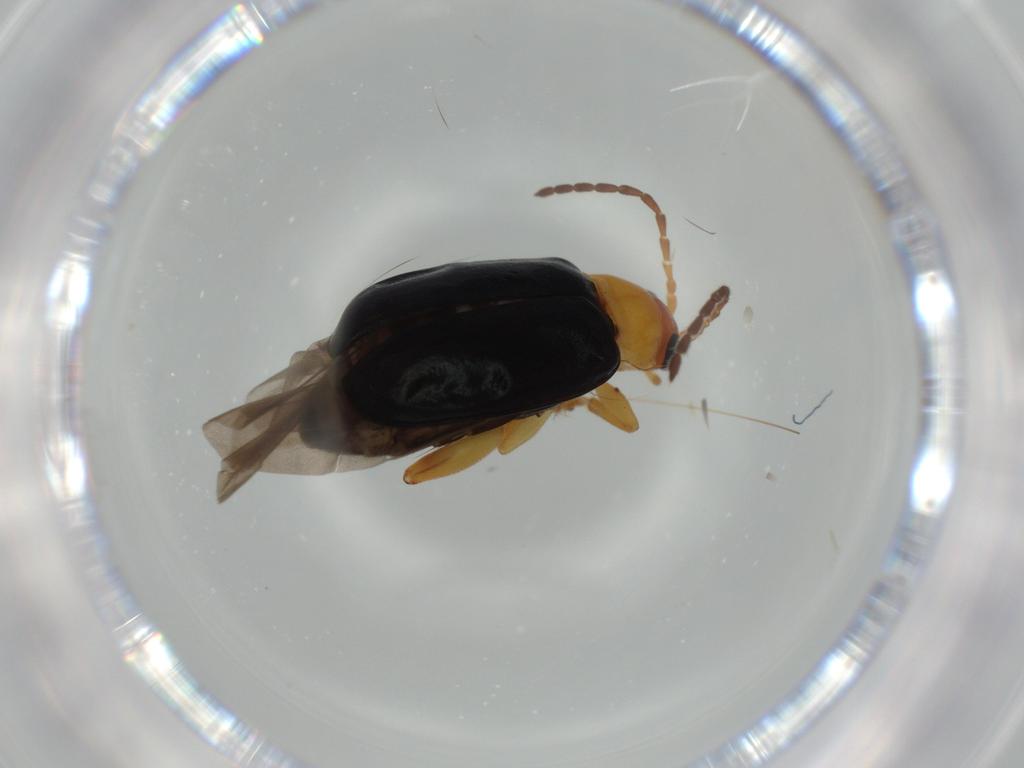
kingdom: Animalia
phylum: Arthropoda
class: Insecta
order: Coleoptera
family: Chrysomelidae
